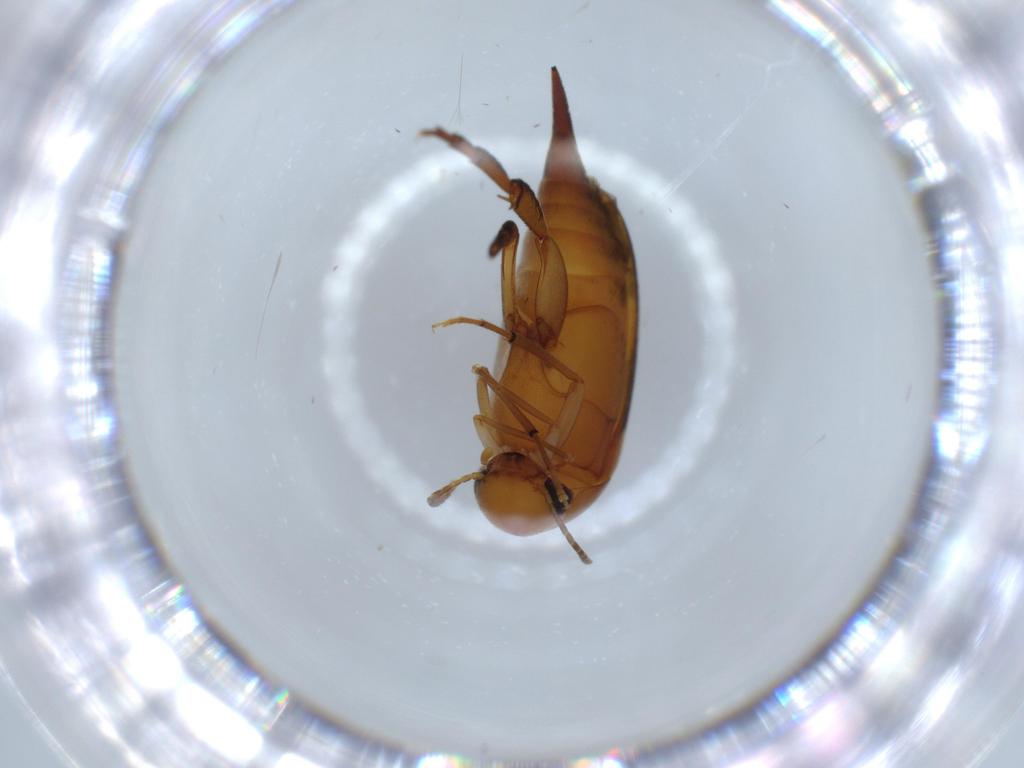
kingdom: Animalia
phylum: Arthropoda
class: Insecta
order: Coleoptera
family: Mordellidae
